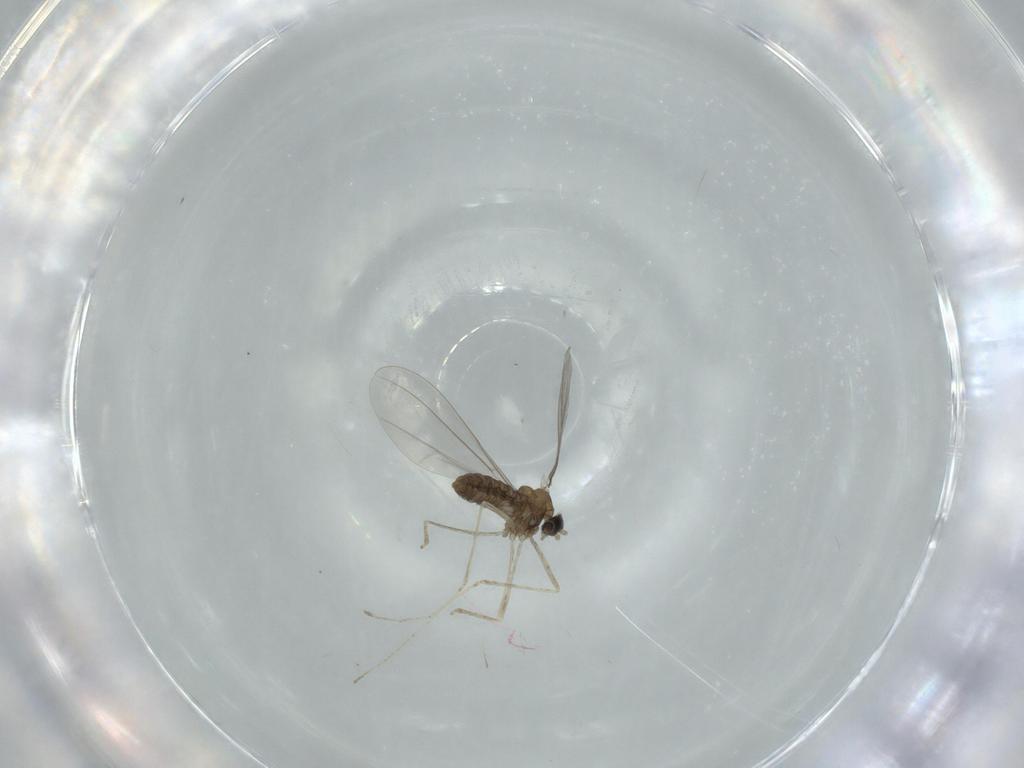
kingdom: Animalia
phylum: Arthropoda
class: Insecta
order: Diptera
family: Cecidomyiidae
